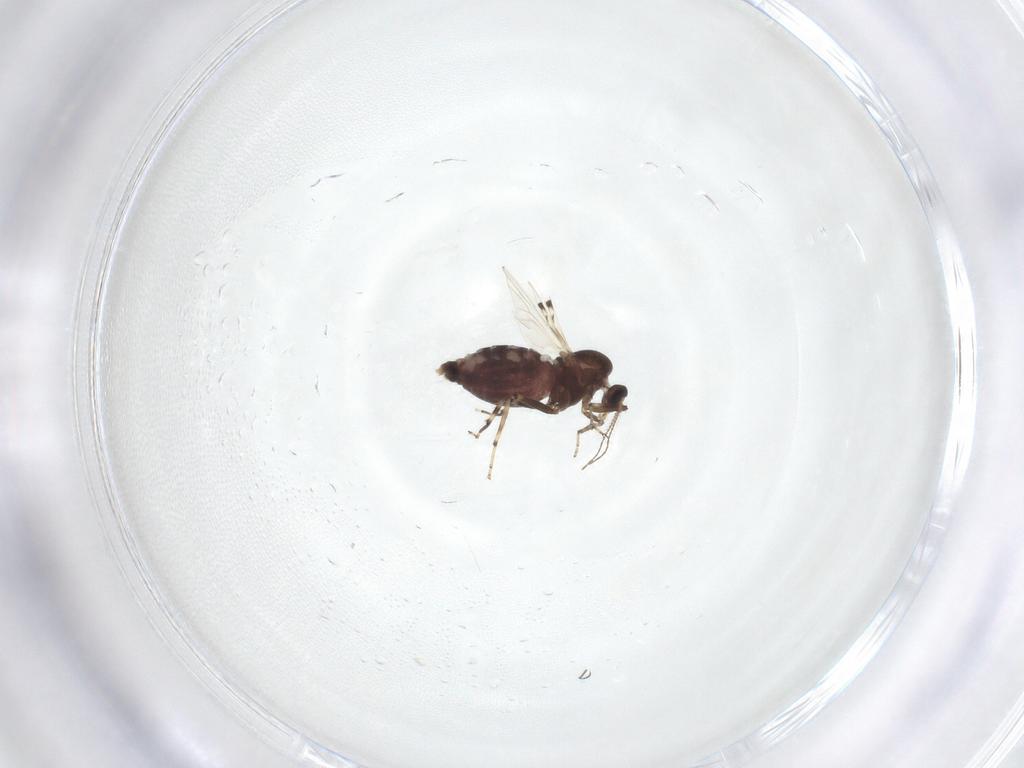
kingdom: Animalia
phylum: Arthropoda
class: Insecta
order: Diptera
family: Ceratopogonidae
